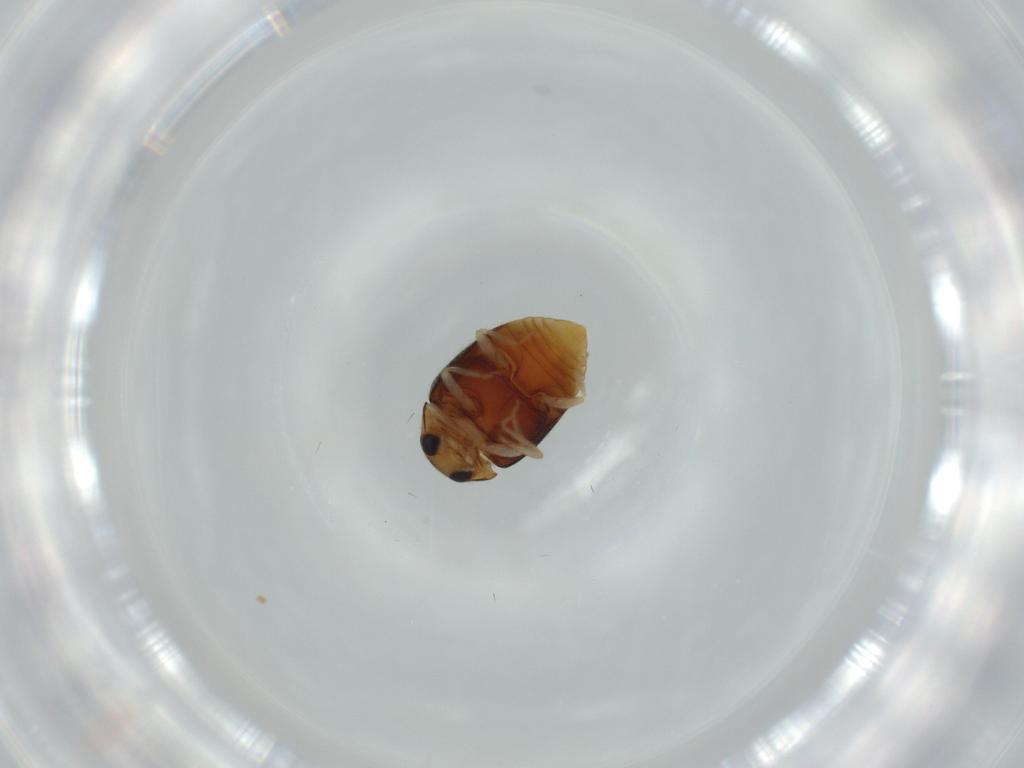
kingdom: Animalia
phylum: Arthropoda
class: Insecta
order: Coleoptera
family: Coccinellidae
